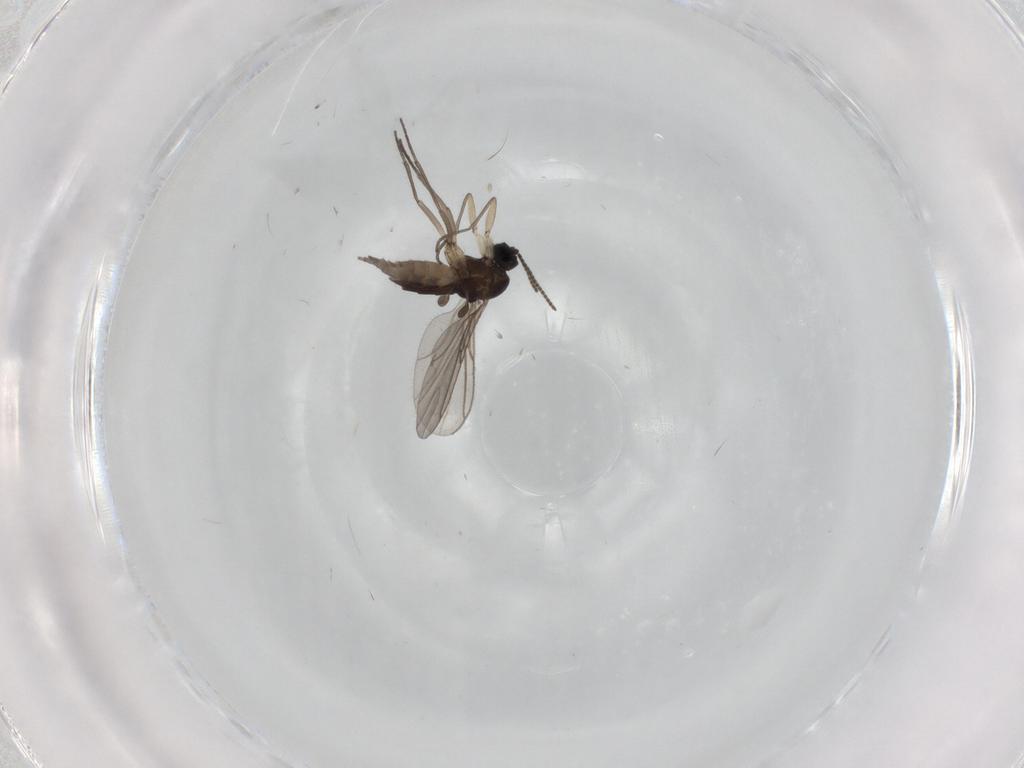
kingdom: Animalia
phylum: Arthropoda
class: Insecta
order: Diptera
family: Sciaridae
